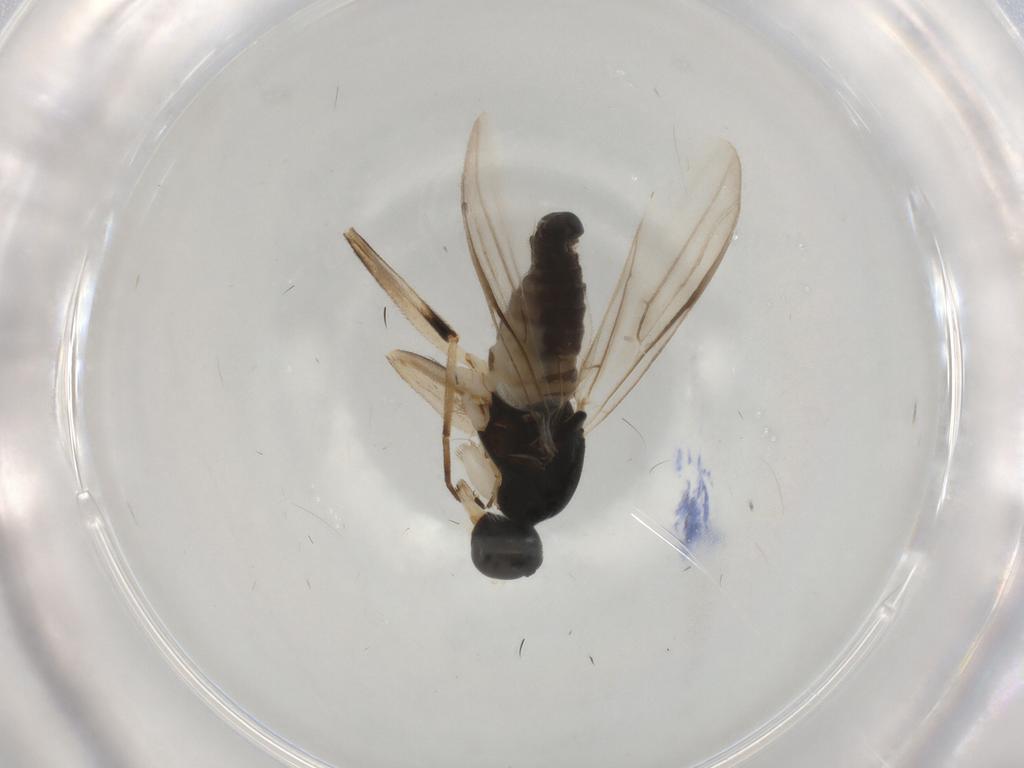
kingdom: Animalia
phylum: Arthropoda
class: Insecta
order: Diptera
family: Hybotidae
